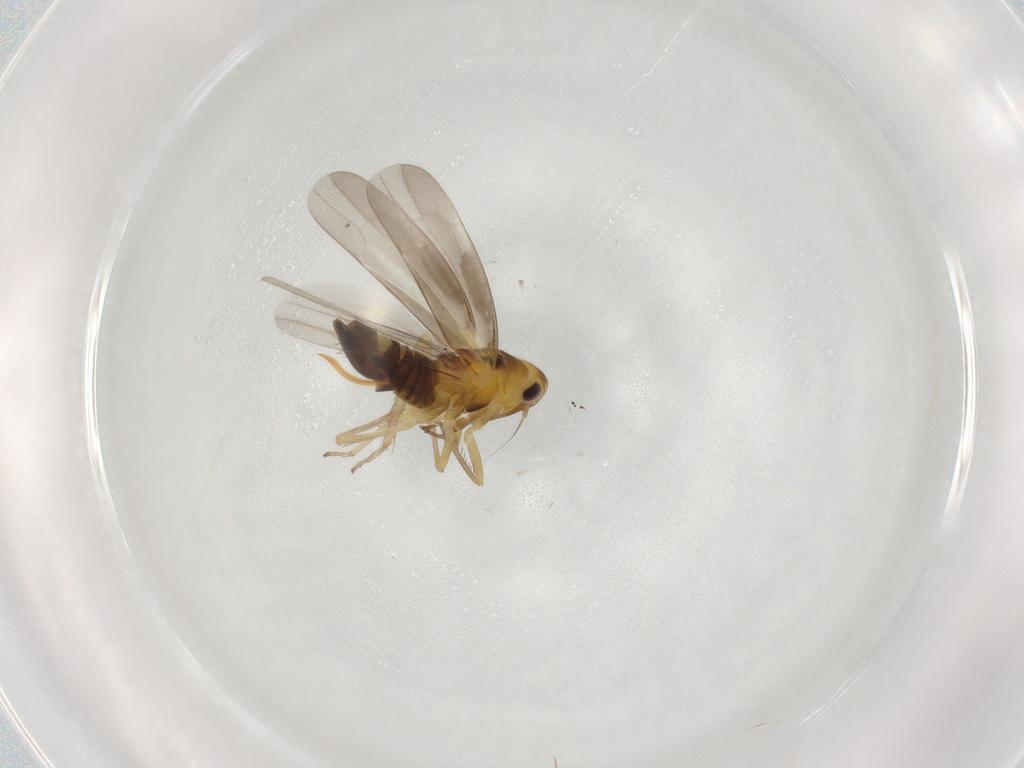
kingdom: Animalia
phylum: Arthropoda
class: Insecta
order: Hemiptera
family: Cicadellidae
